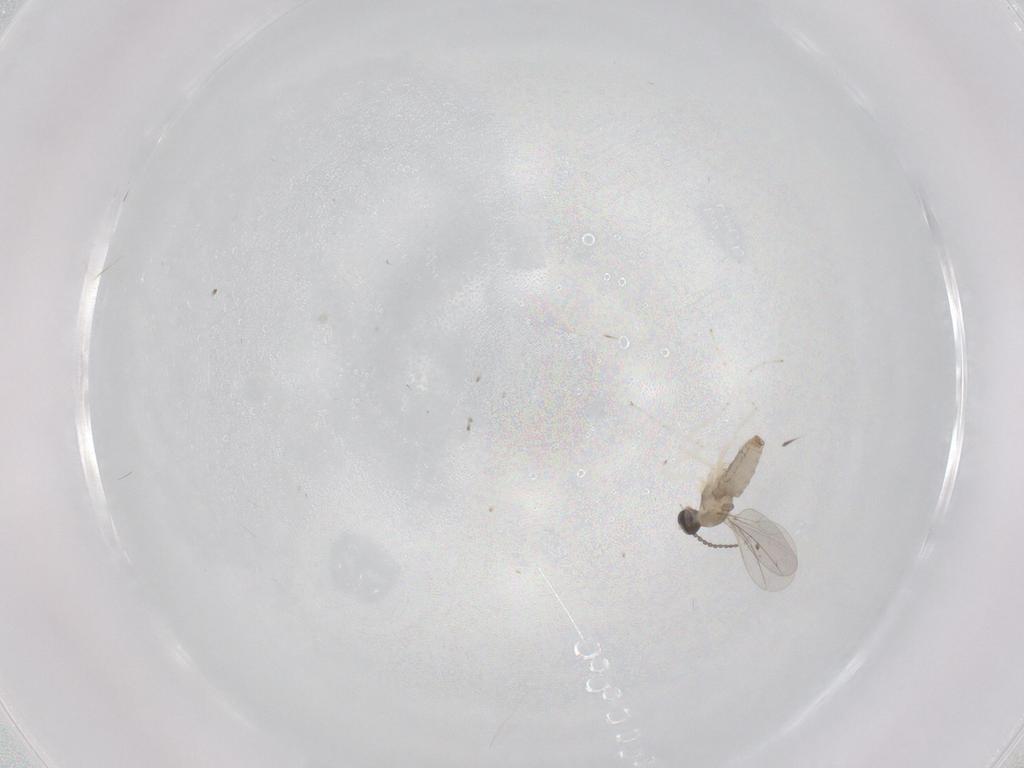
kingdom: Animalia
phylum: Arthropoda
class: Insecta
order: Diptera
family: Cecidomyiidae
